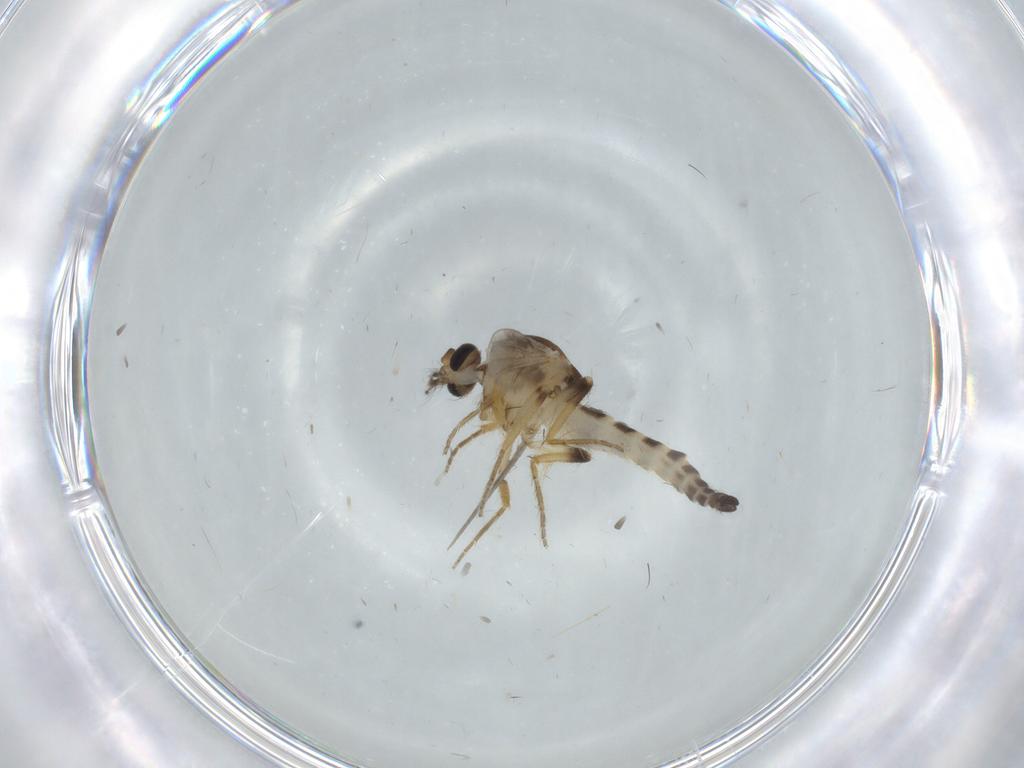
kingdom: Animalia
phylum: Arthropoda
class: Insecta
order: Diptera
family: Ceratopogonidae
